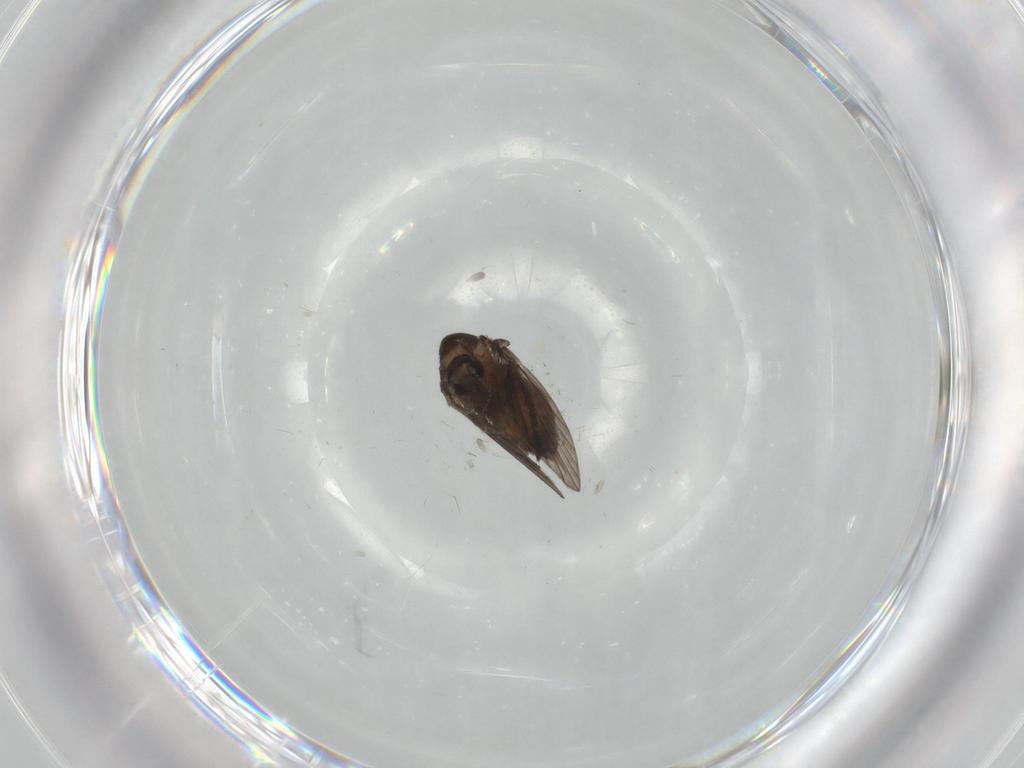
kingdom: Animalia
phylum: Arthropoda
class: Insecta
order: Diptera
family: Psychodidae
